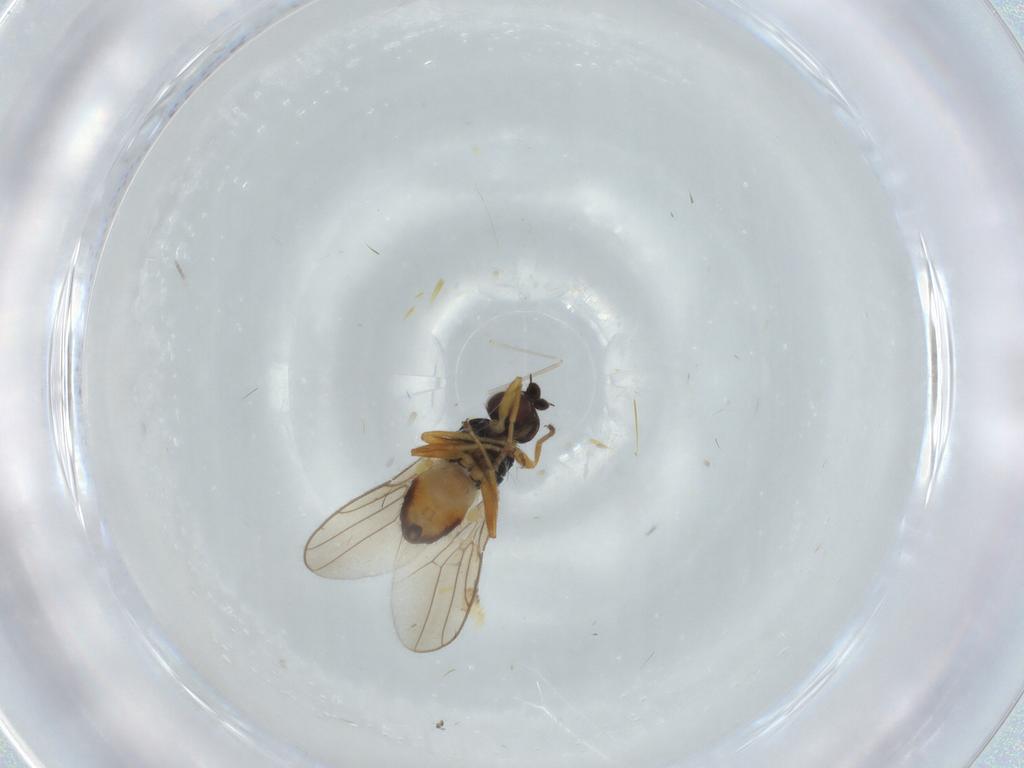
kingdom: Animalia
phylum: Arthropoda
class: Insecta
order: Diptera
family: Chloropidae
